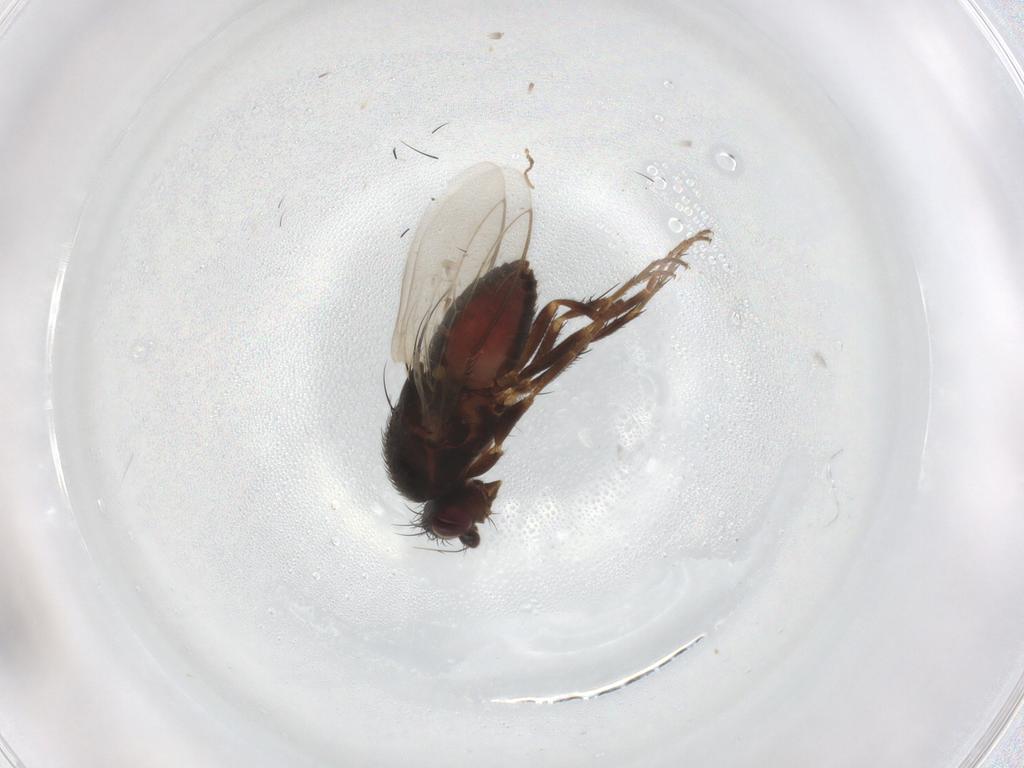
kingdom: Animalia
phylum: Arthropoda
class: Insecta
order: Diptera
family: Sphaeroceridae
